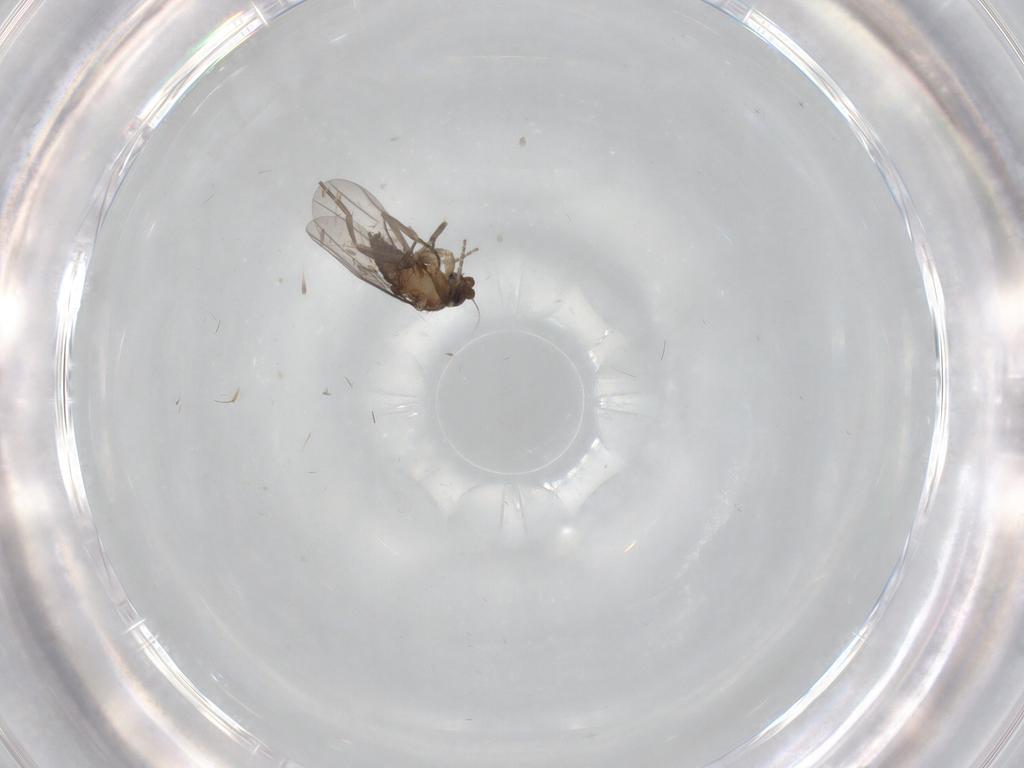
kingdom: Animalia
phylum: Arthropoda
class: Insecta
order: Diptera
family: Phoridae
